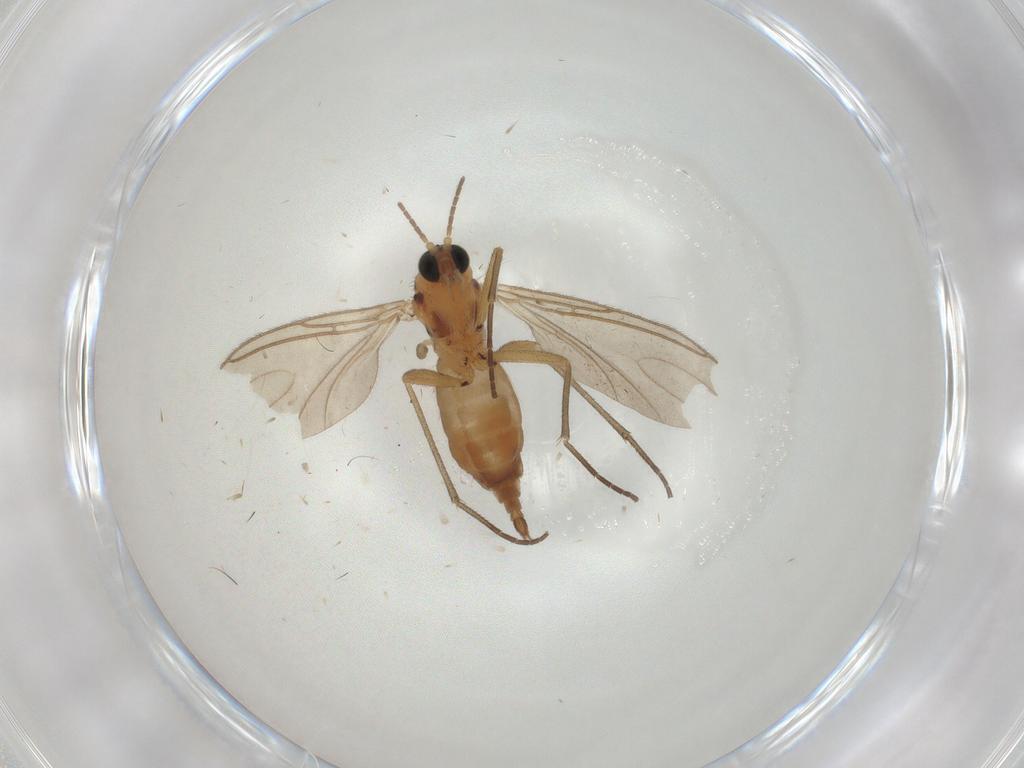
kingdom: Animalia
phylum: Arthropoda
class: Insecta
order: Diptera
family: Sciaridae
